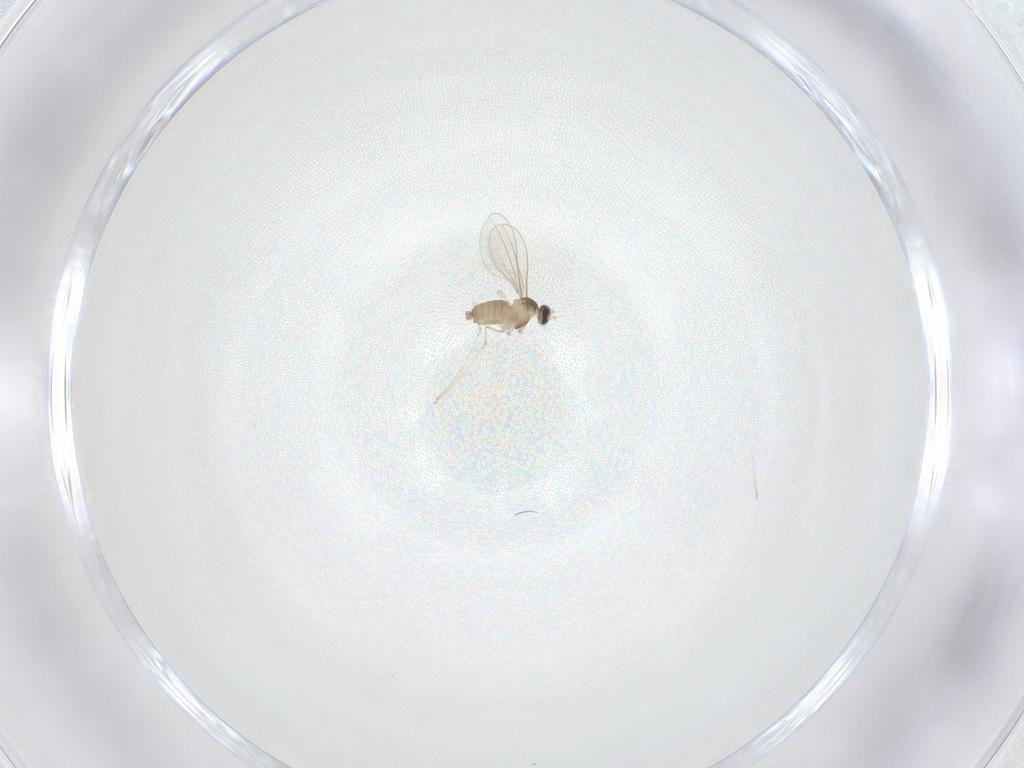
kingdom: Animalia
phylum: Arthropoda
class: Insecta
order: Diptera
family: Cecidomyiidae
